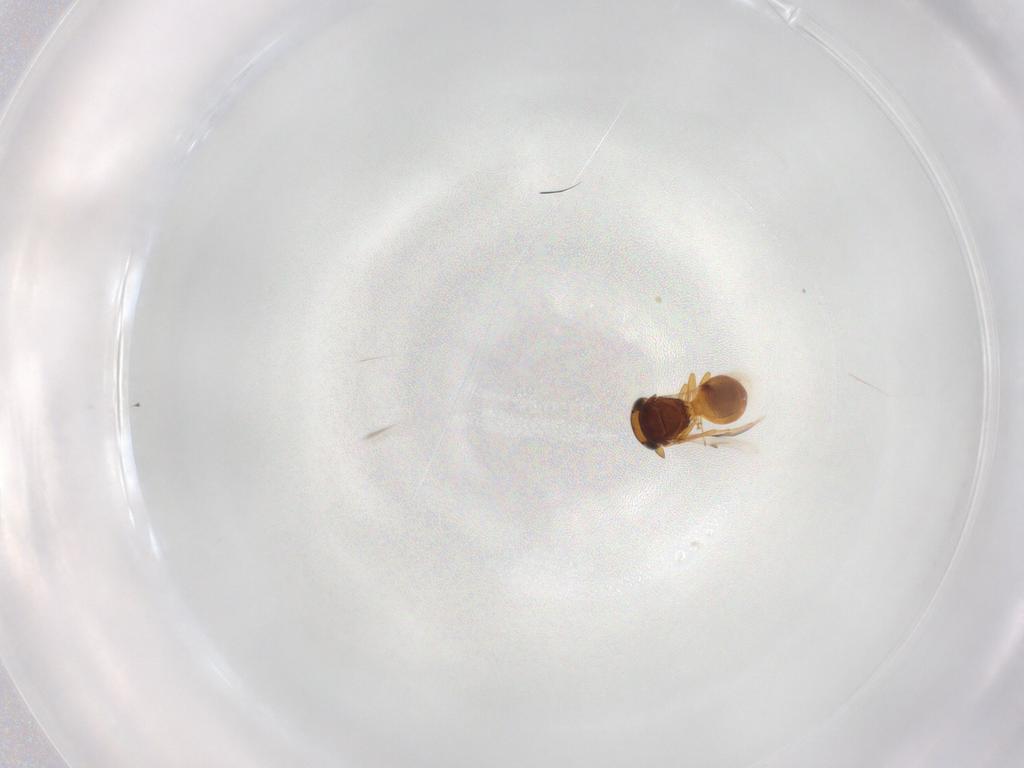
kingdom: Animalia
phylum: Arthropoda
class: Insecta
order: Hymenoptera
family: Scelionidae
